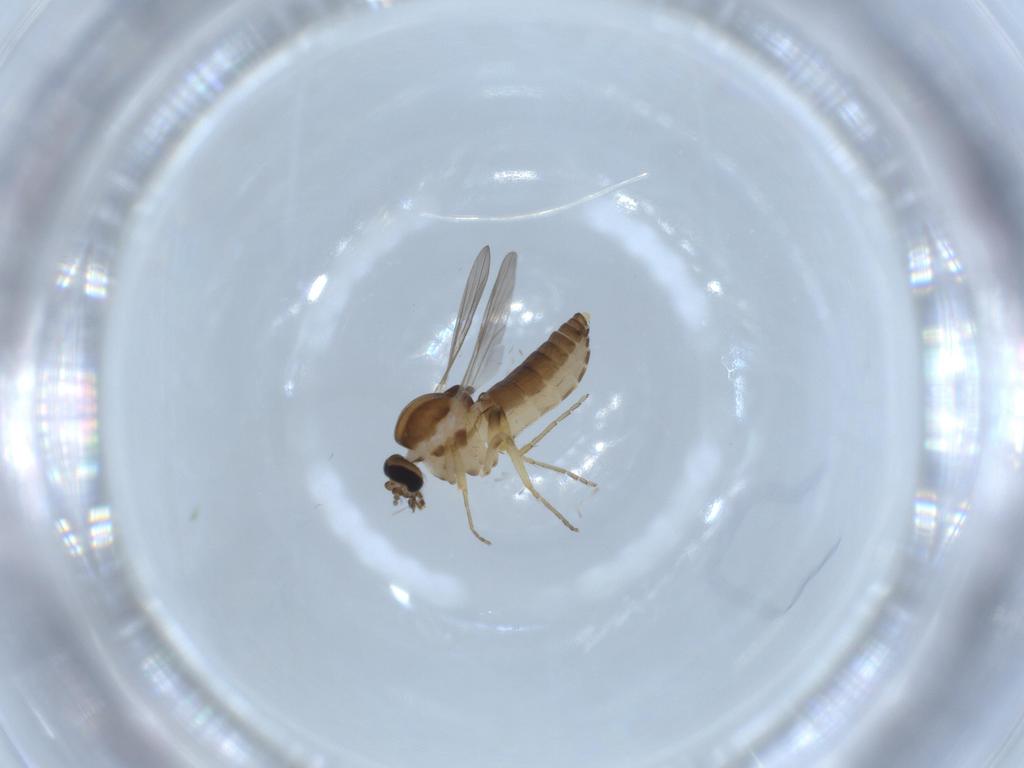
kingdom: Animalia
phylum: Arthropoda
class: Insecta
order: Diptera
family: Ceratopogonidae
